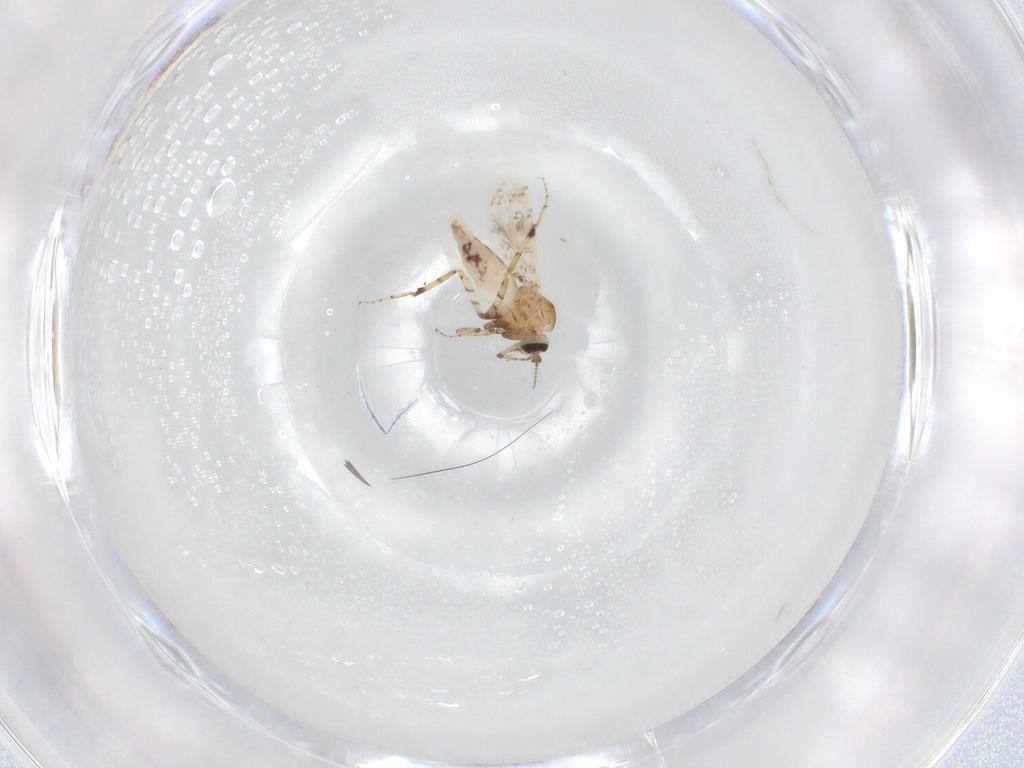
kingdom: Animalia
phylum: Arthropoda
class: Insecta
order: Diptera
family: Ceratopogonidae
